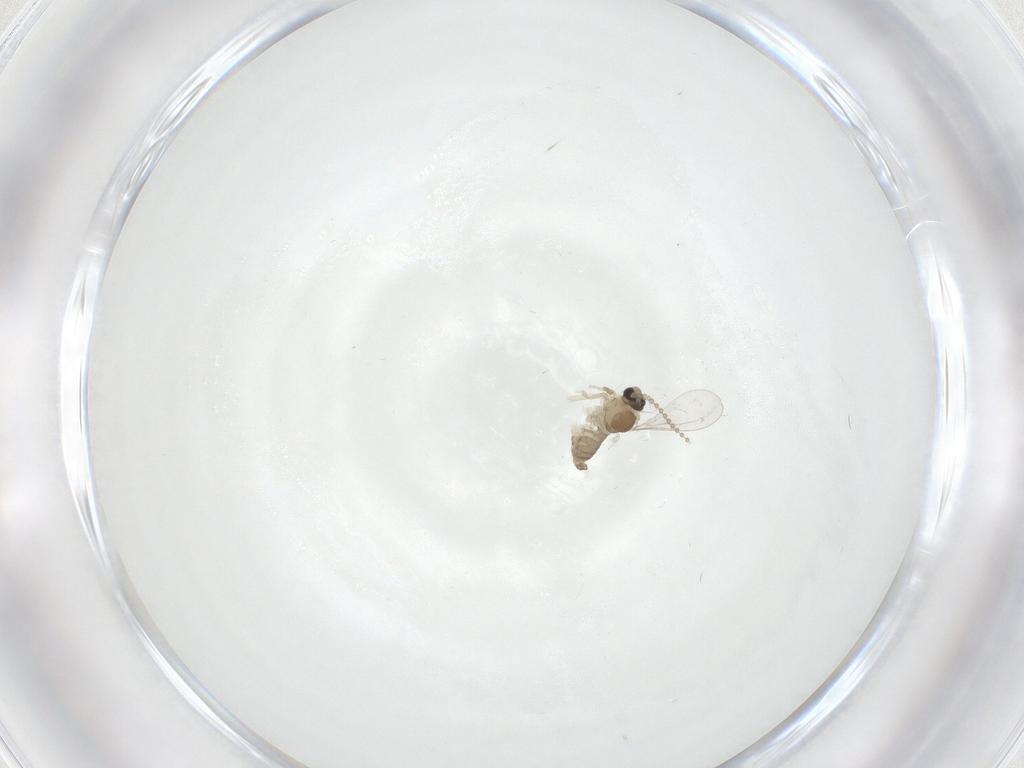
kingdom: Animalia
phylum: Arthropoda
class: Insecta
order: Diptera
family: Cecidomyiidae
